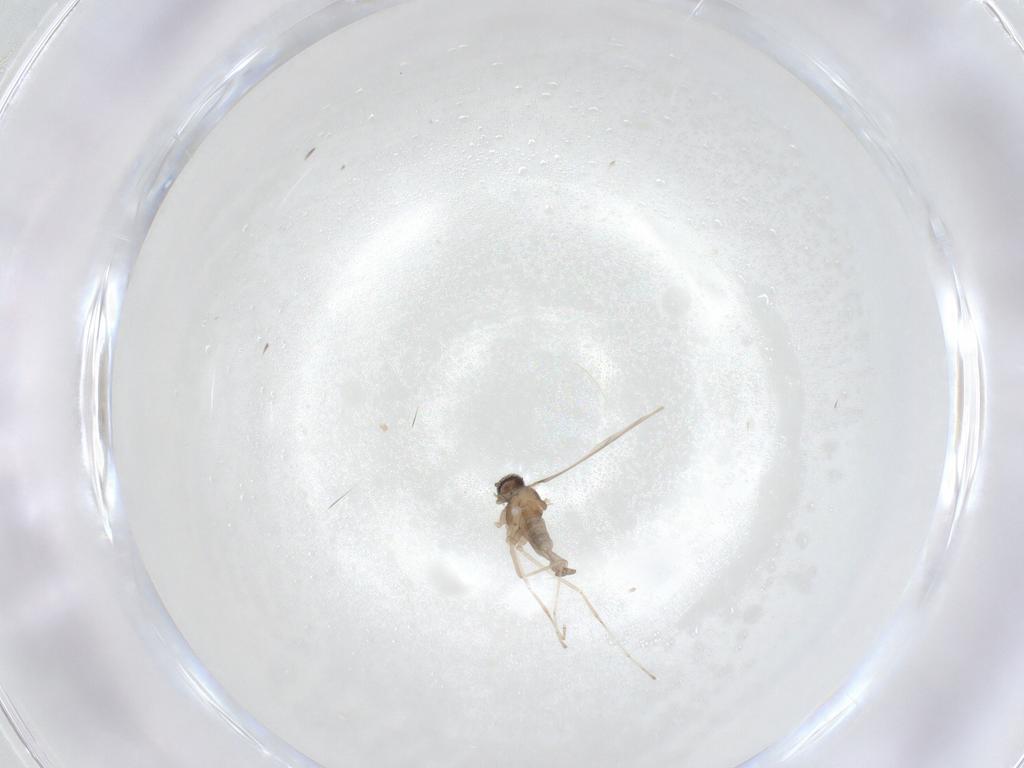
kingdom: Animalia
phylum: Arthropoda
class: Insecta
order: Diptera
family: Cecidomyiidae
